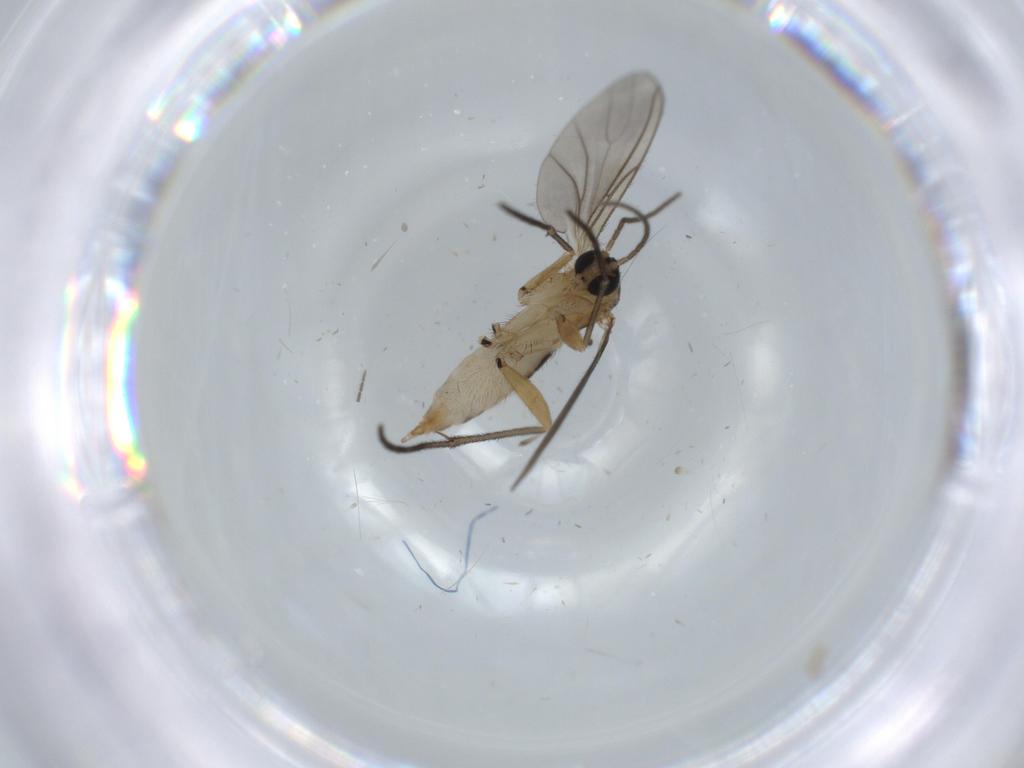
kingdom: Animalia
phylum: Arthropoda
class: Insecta
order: Diptera
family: Sciaridae
